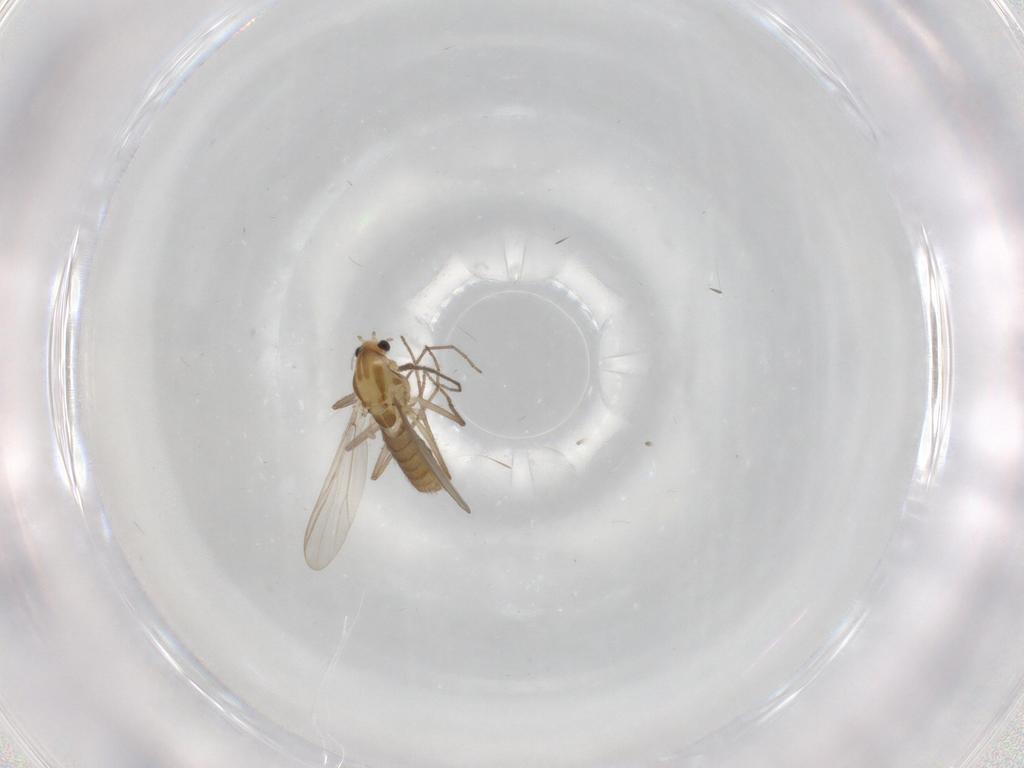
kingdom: Animalia
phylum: Arthropoda
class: Insecta
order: Diptera
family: Chironomidae
